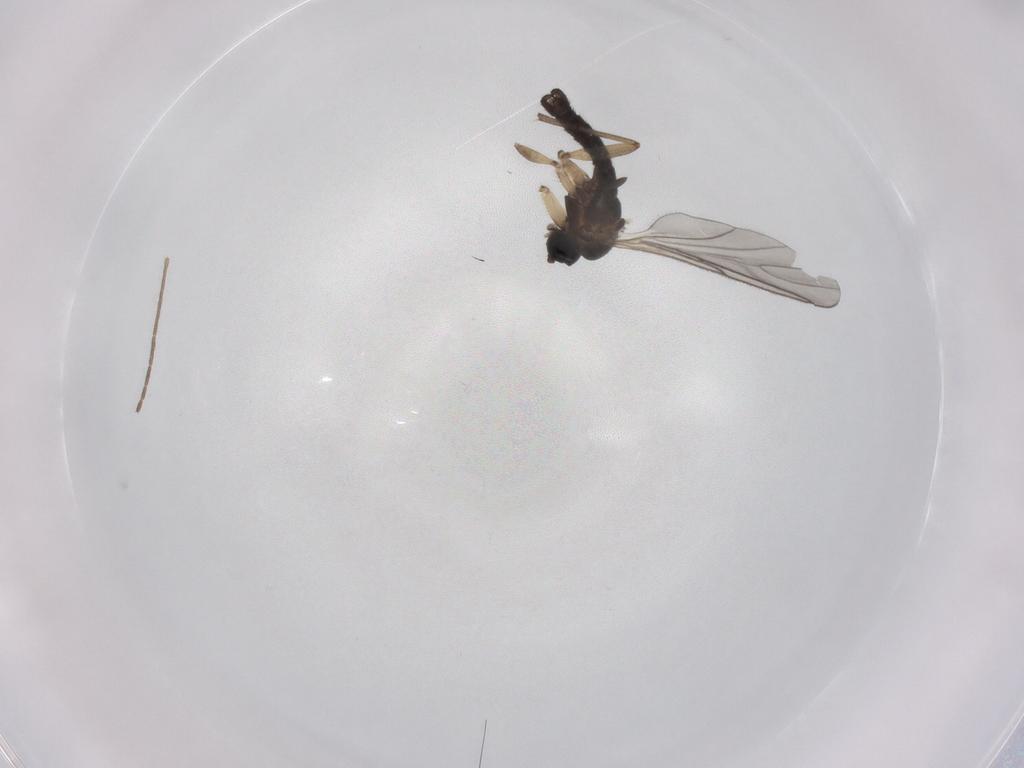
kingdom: Animalia
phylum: Arthropoda
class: Insecta
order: Diptera
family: Sciaridae
